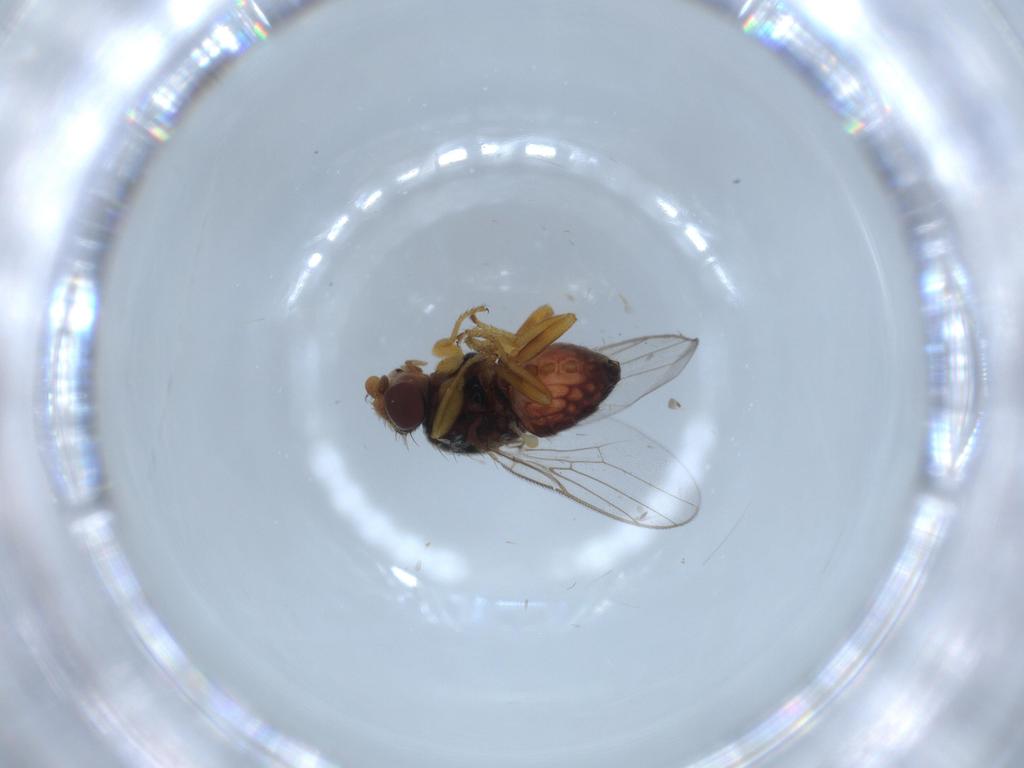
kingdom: Animalia
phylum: Arthropoda
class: Insecta
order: Diptera
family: Chloropidae
